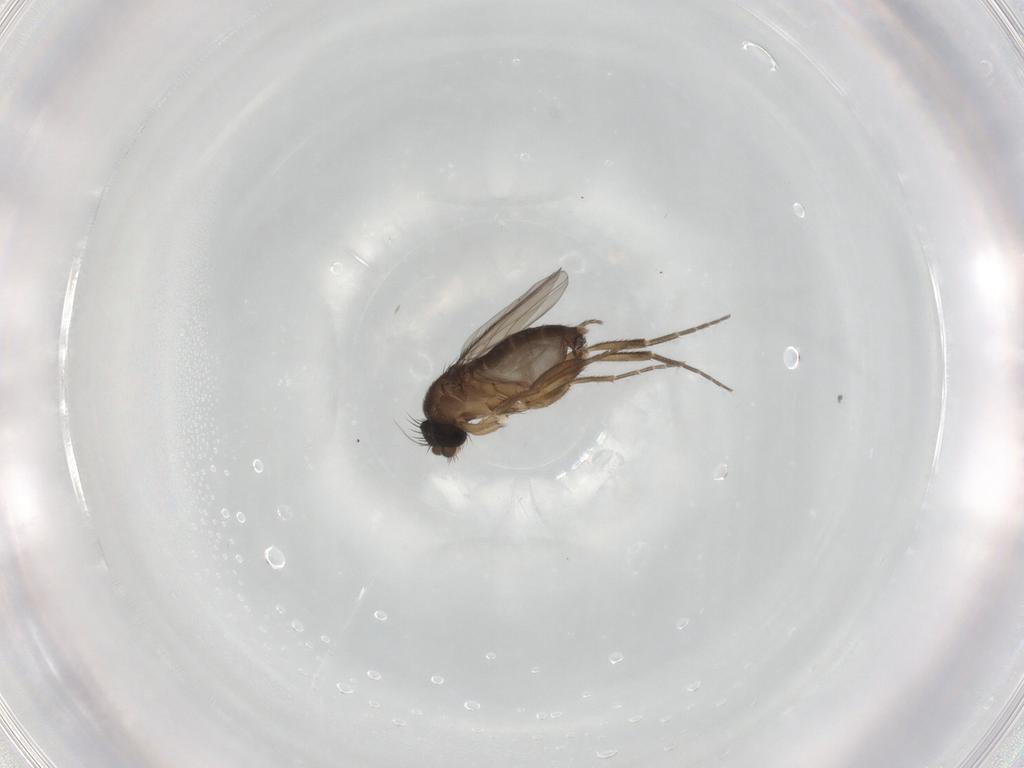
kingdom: Animalia
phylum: Arthropoda
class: Insecta
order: Diptera
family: Phoridae
